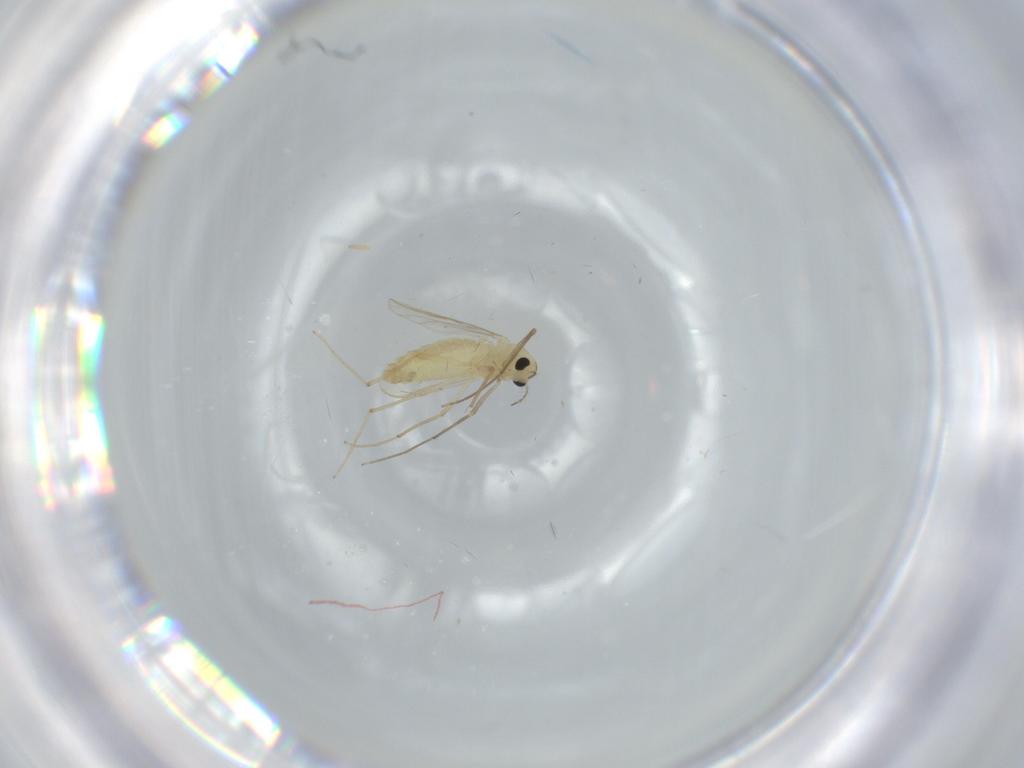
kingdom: Animalia
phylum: Arthropoda
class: Insecta
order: Diptera
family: Chironomidae
